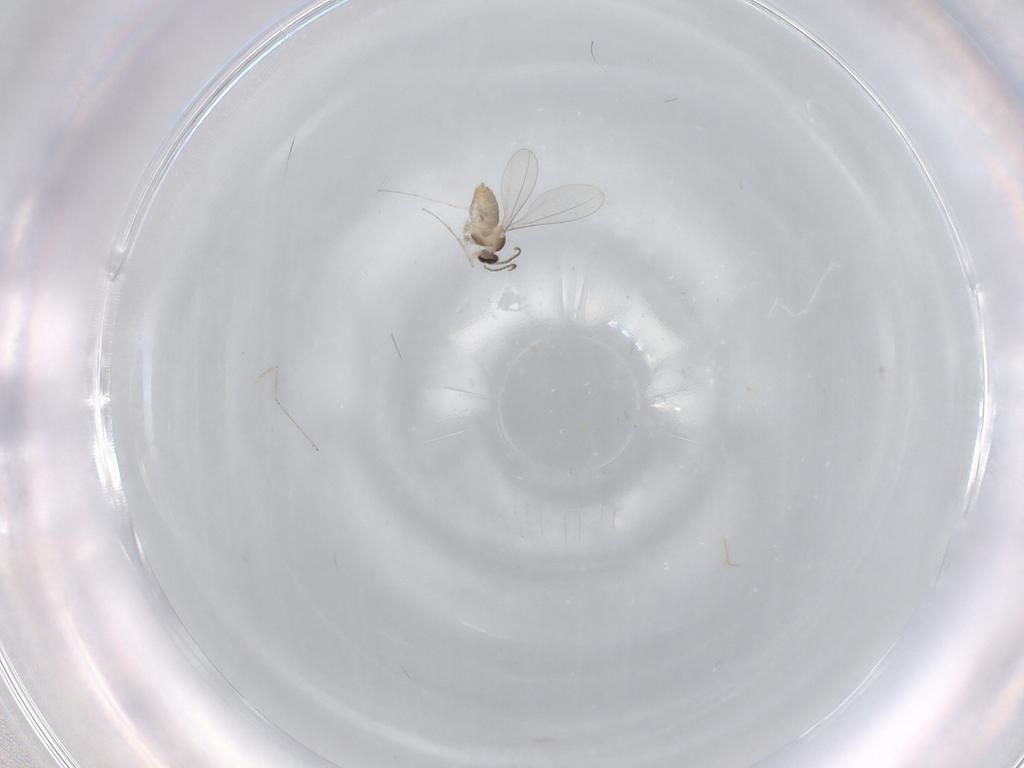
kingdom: Animalia
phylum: Arthropoda
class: Insecta
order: Diptera
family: Cecidomyiidae
